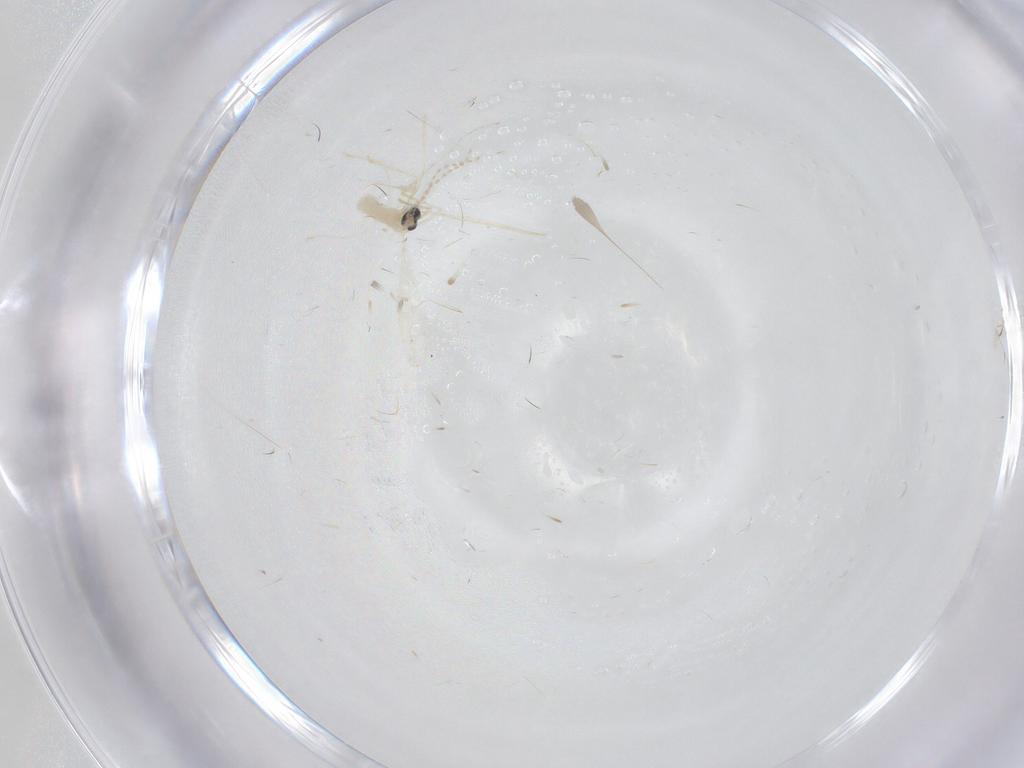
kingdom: Animalia
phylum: Arthropoda
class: Insecta
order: Diptera
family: Cecidomyiidae
